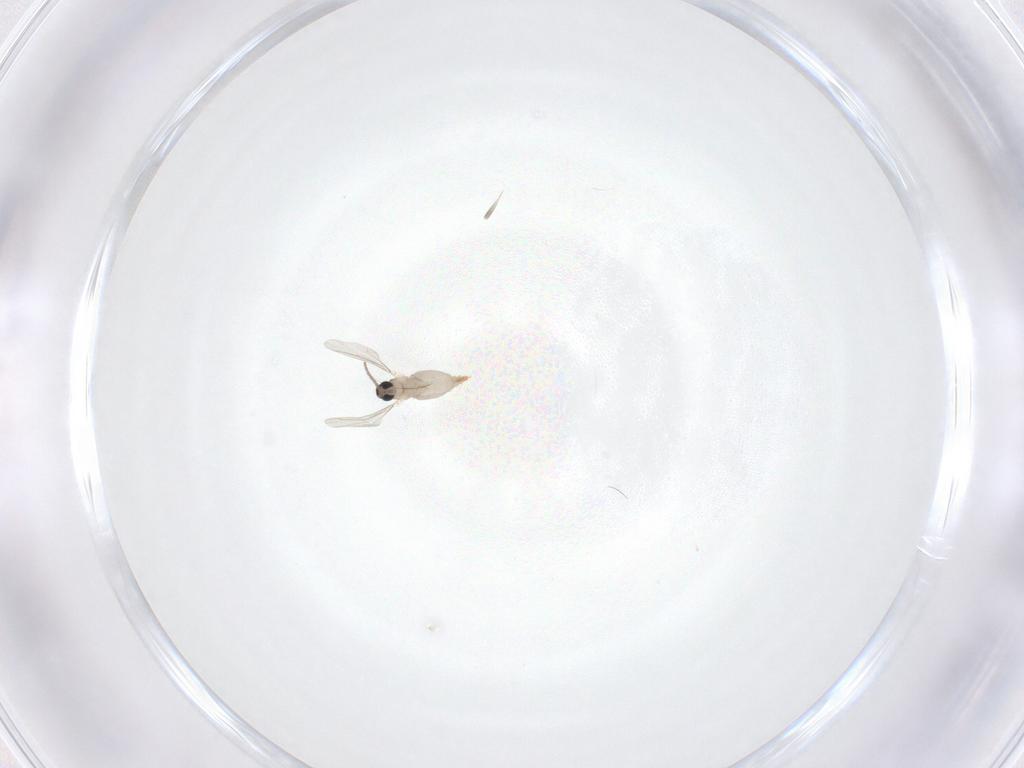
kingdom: Animalia
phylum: Arthropoda
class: Insecta
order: Diptera
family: Cecidomyiidae
